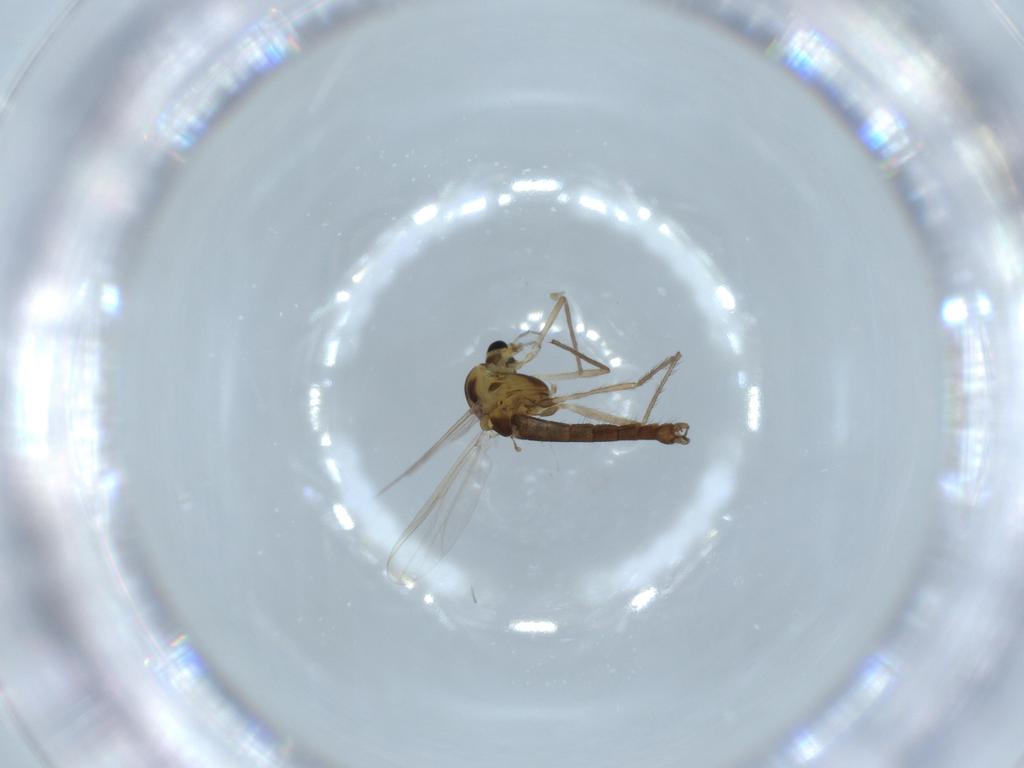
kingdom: Animalia
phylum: Arthropoda
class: Insecta
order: Diptera
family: Chironomidae
